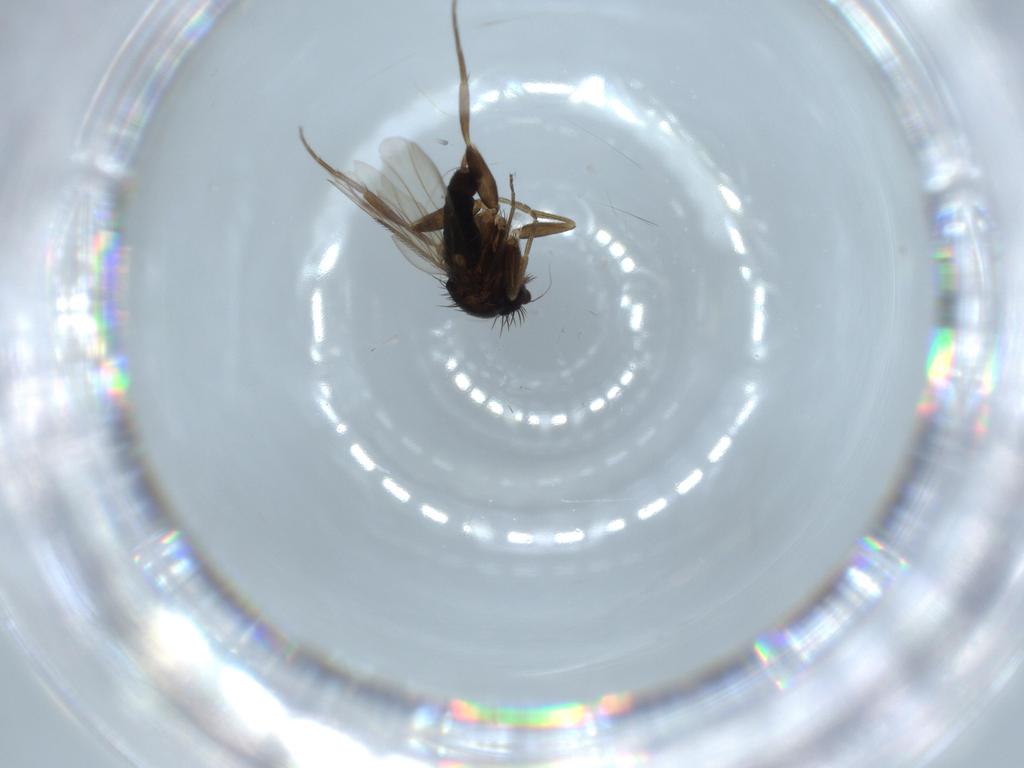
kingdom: Animalia
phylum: Arthropoda
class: Insecta
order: Diptera
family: Phoridae
